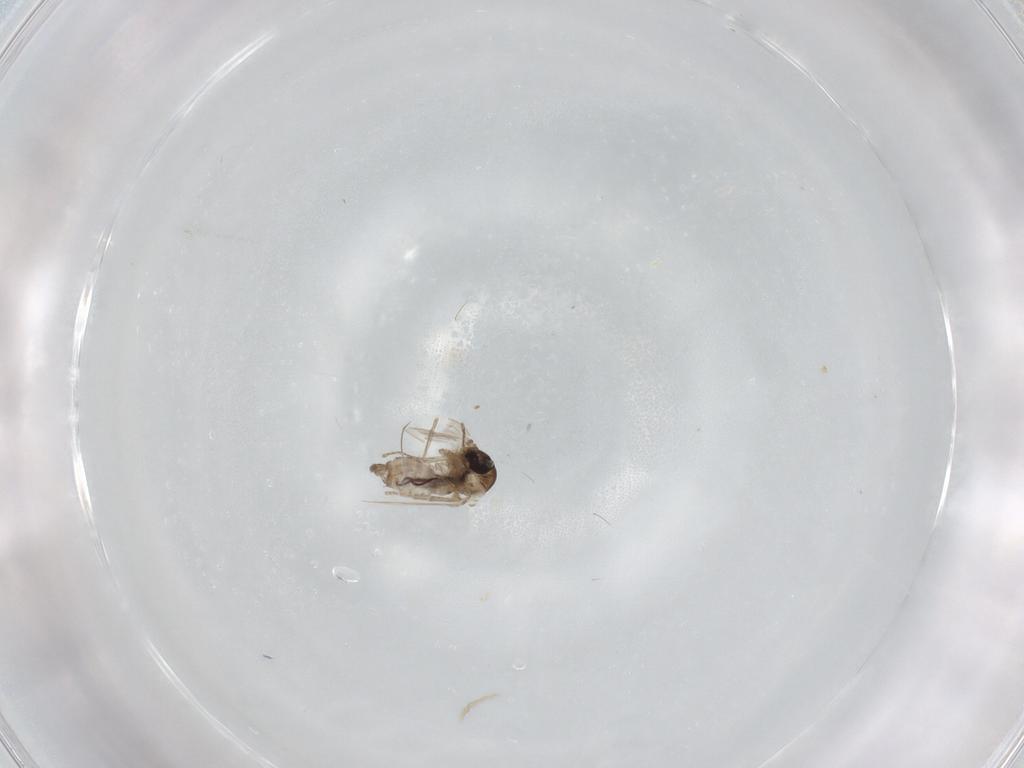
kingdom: Animalia
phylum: Arthropoda
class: Insecta
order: Diptera
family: Psychodidae
